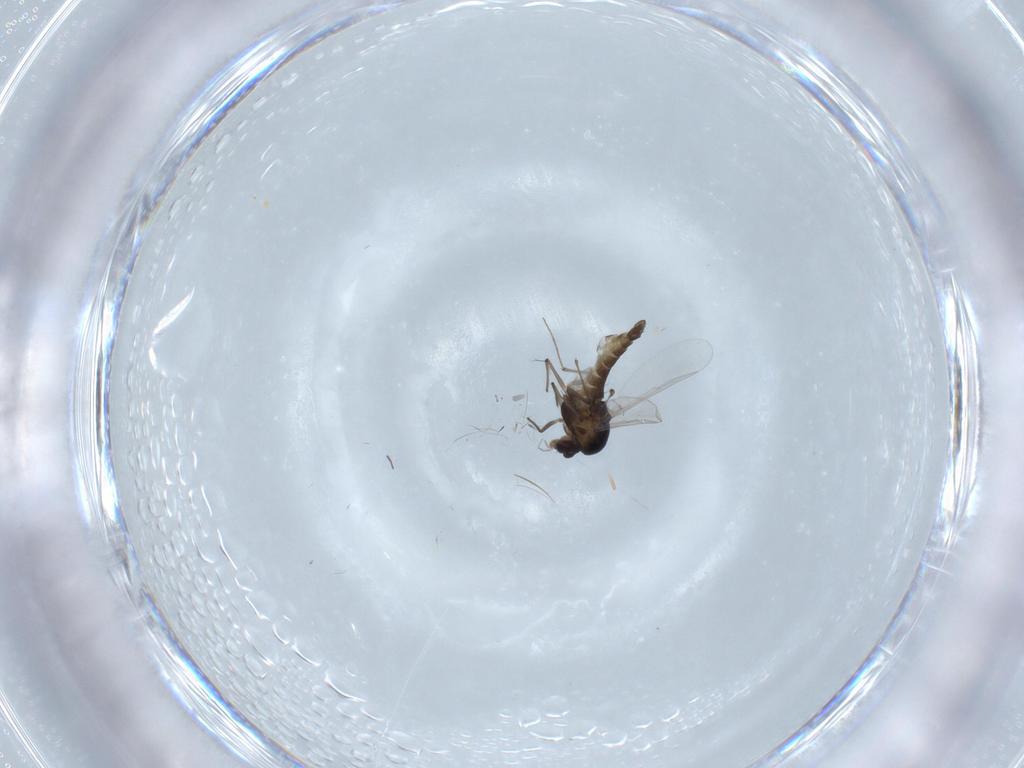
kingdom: Animalia
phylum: Arthropoda
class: Insecta
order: Diptera
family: Chironomidae
